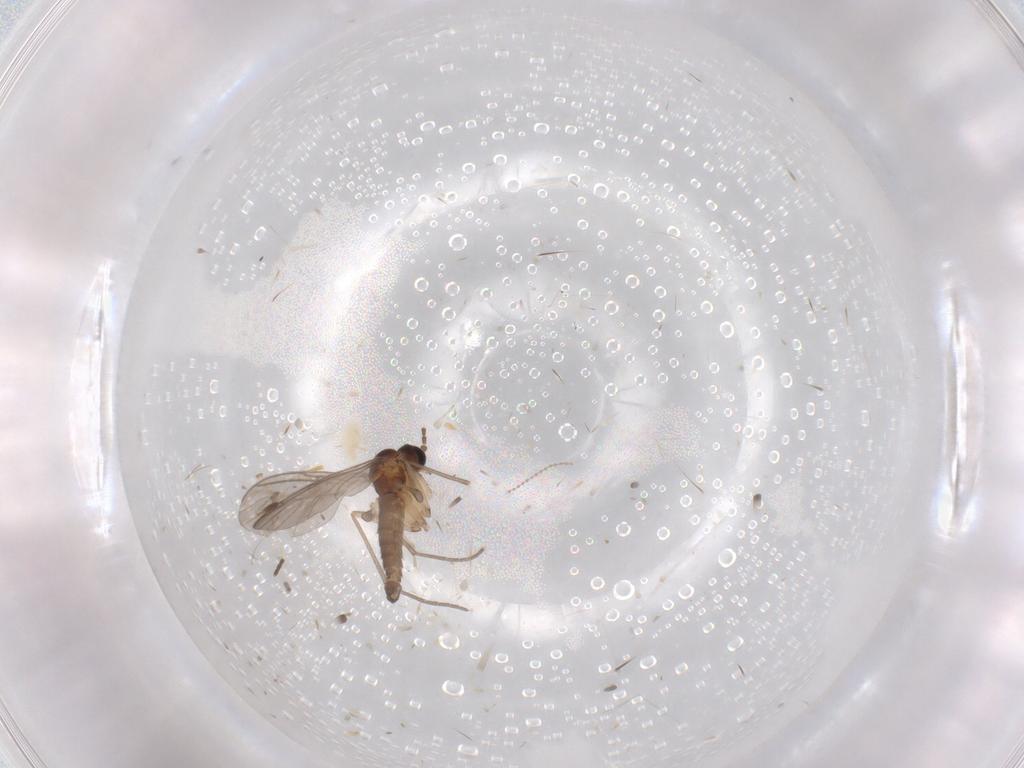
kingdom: Animalia
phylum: Arthropoda
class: Insecta
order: Diptera
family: Sciaridae
